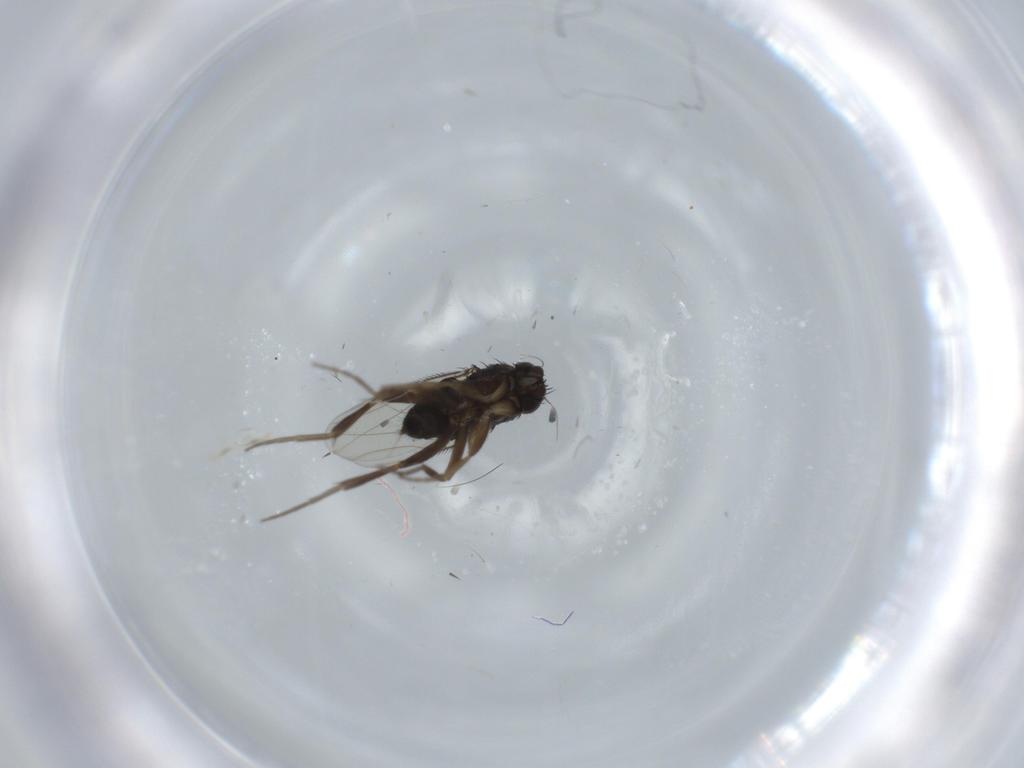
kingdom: Animalia
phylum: Arthropoda
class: Insecta
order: Diptera
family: Phoridae
